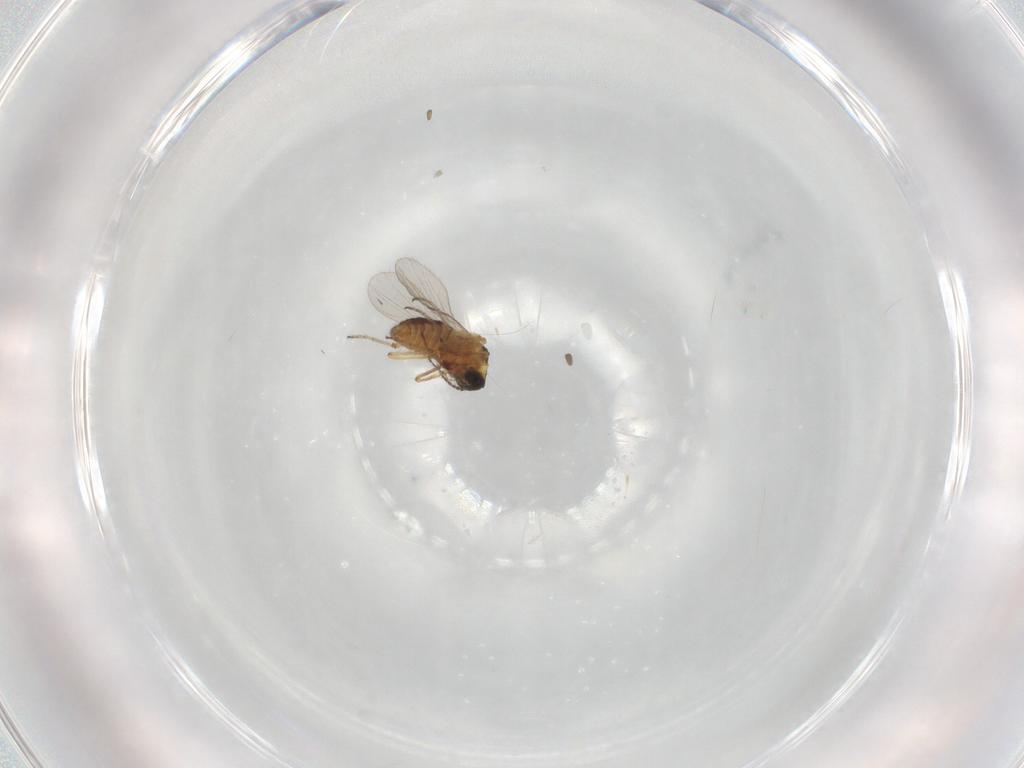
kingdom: Animalia
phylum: Arthropoda
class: Insecta
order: Diptera
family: Ceratopogonidae
